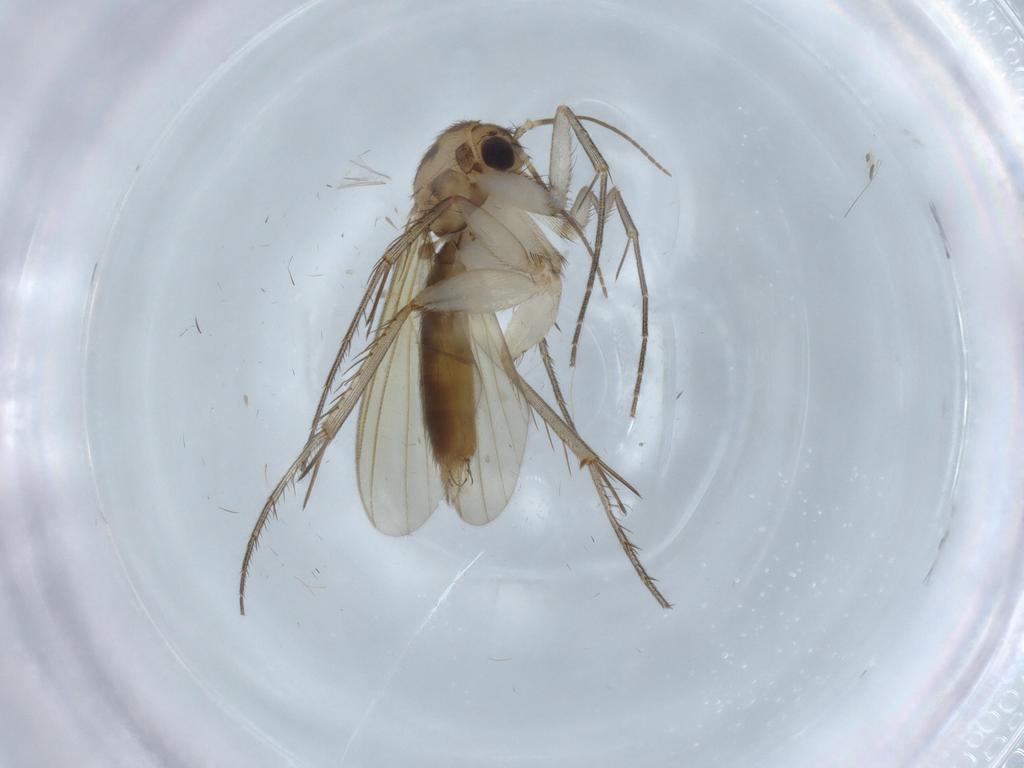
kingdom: Animalia
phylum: Arthropoda
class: Insecta
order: Diptera
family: Mycetophilidae
